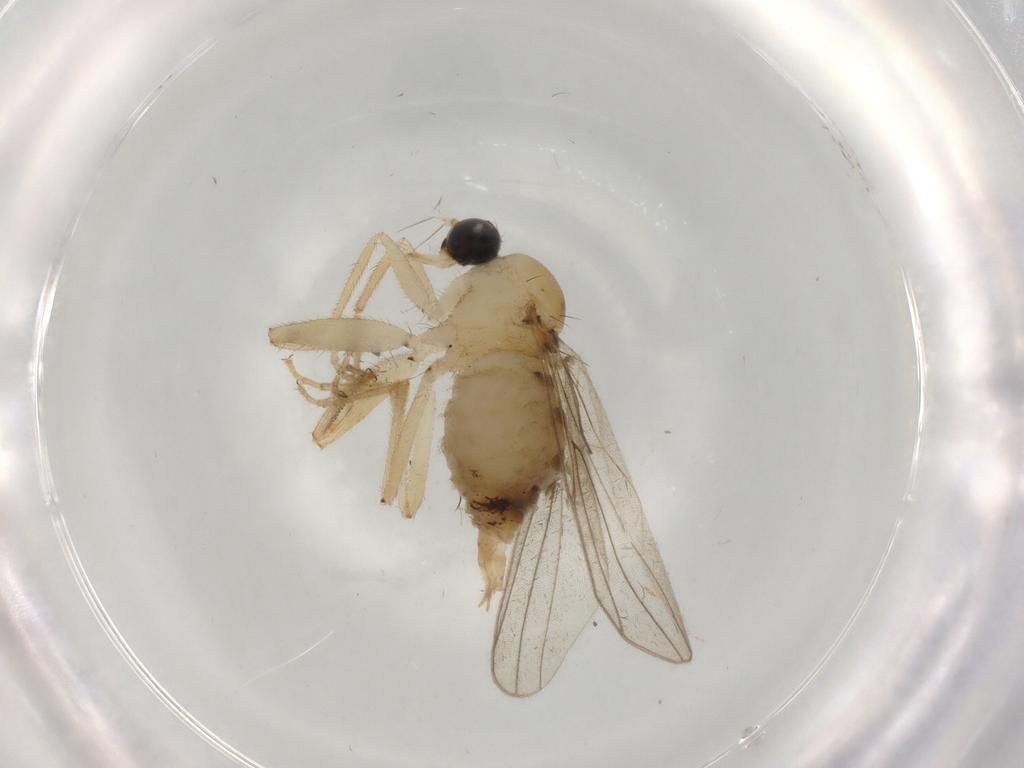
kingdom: Animalia
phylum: Arthropoda
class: Insecta
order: Diptera
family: Hybotidae
